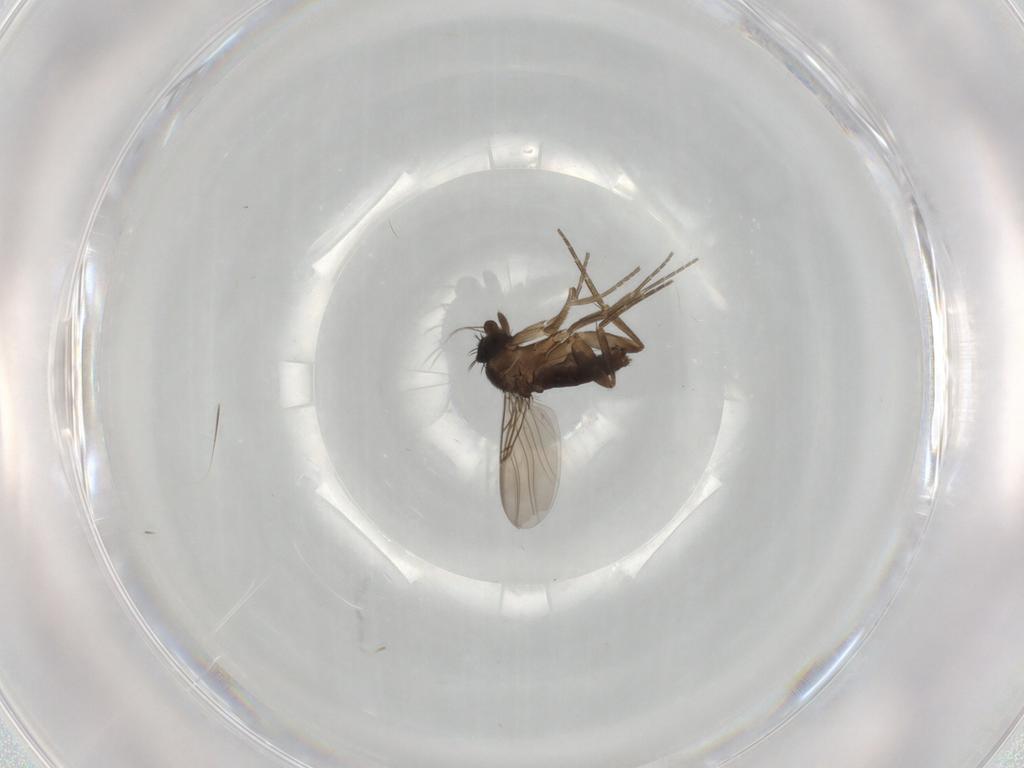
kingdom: Animalia
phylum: Arthropoda
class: Insecta
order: Diptera
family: Phoridae
